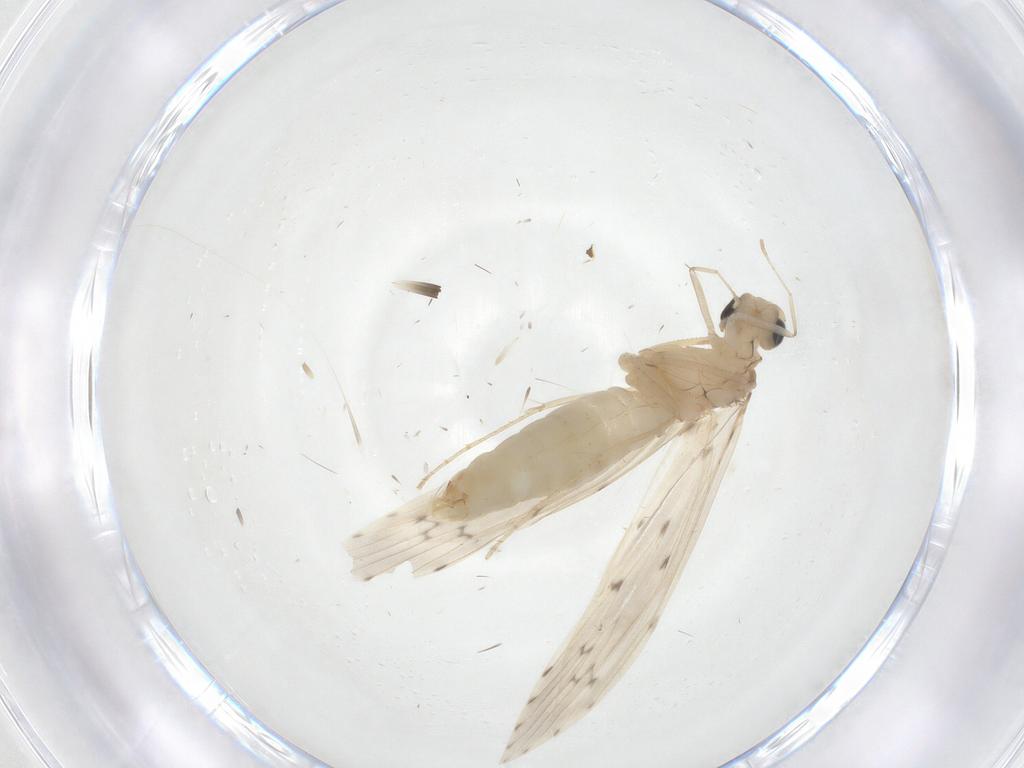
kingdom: Animalia
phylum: Arthropoda
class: Insecta
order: Trichoptera
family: Leptoceridae
